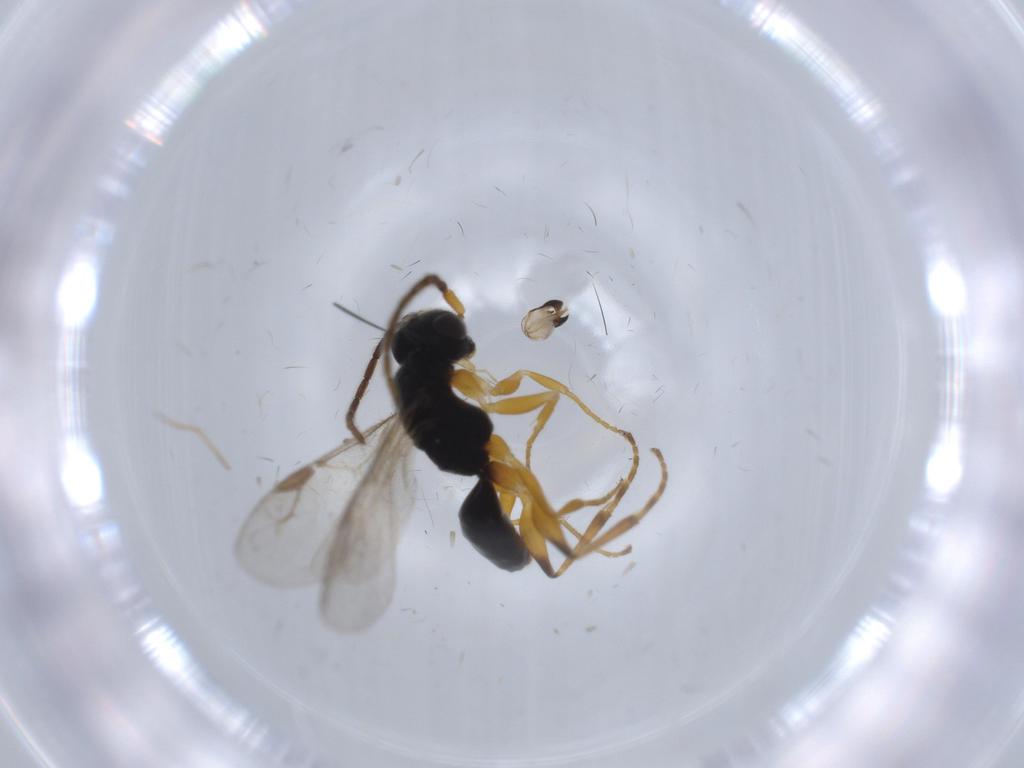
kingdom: Animalia
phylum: Arthropoda
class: Insecta
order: Hymenoptera
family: Dryinidae
